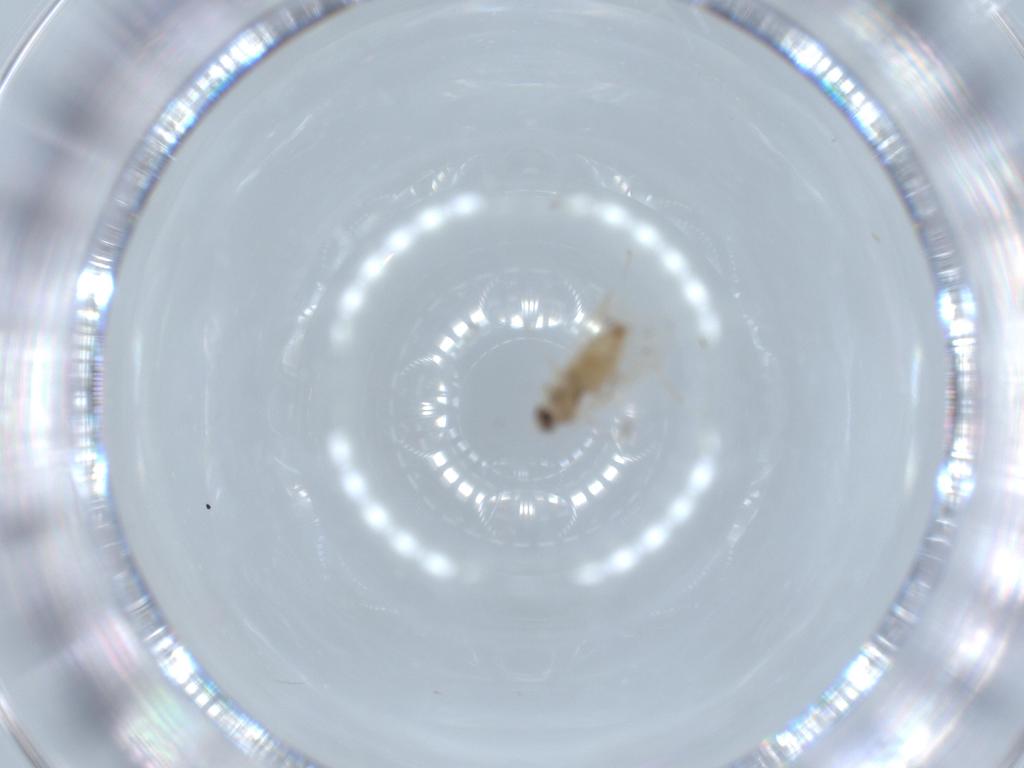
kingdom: Animalia
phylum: Arthropoda
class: Insecta
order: Diptera
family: Cecidomyiidae
